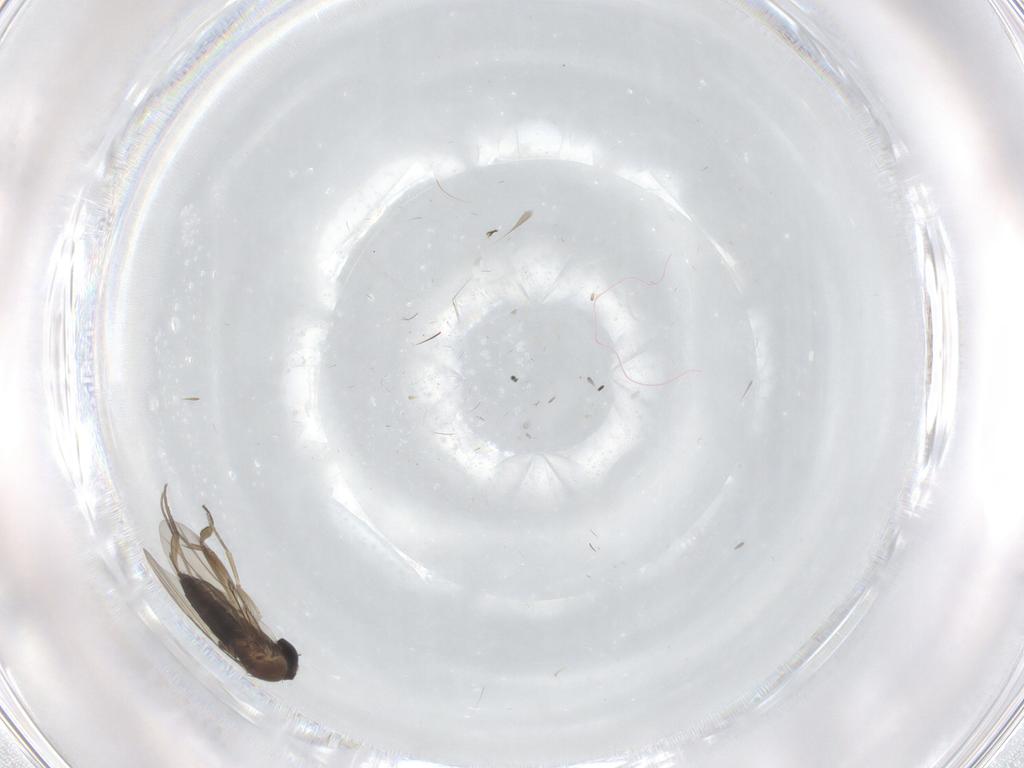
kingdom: Animalia
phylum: Arthropoda
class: Insecta
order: Diptera
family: Phoridae
